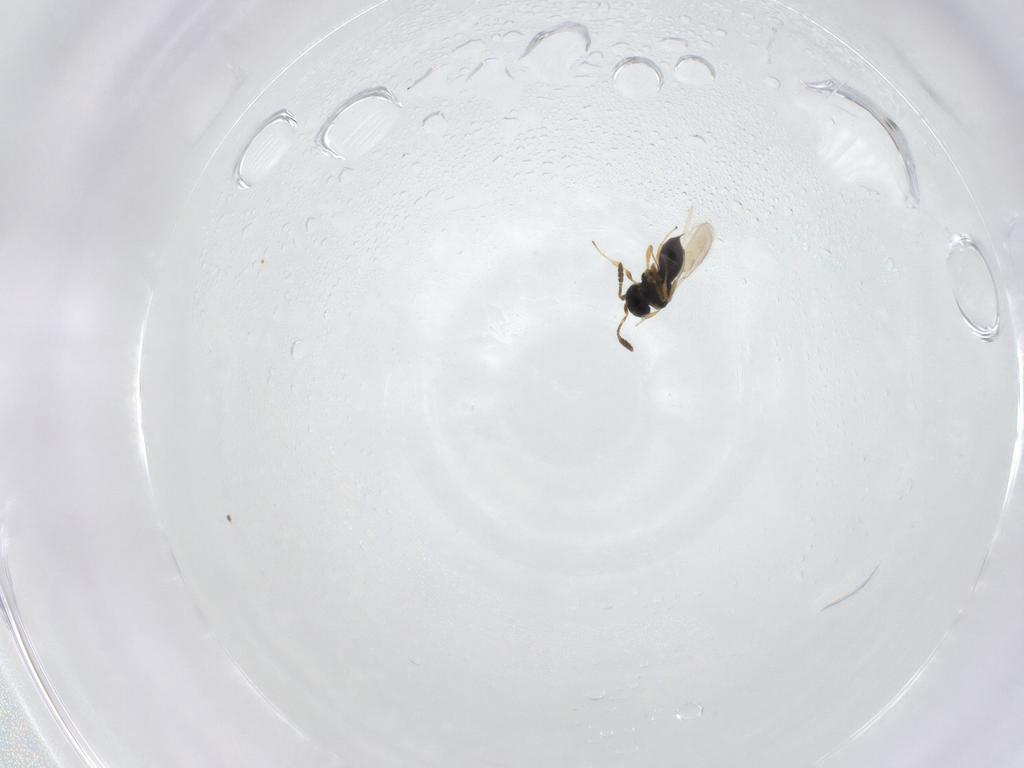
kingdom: Animalia
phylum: Arthropoda
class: Insecta
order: Hymenoptera
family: Scelionidae
